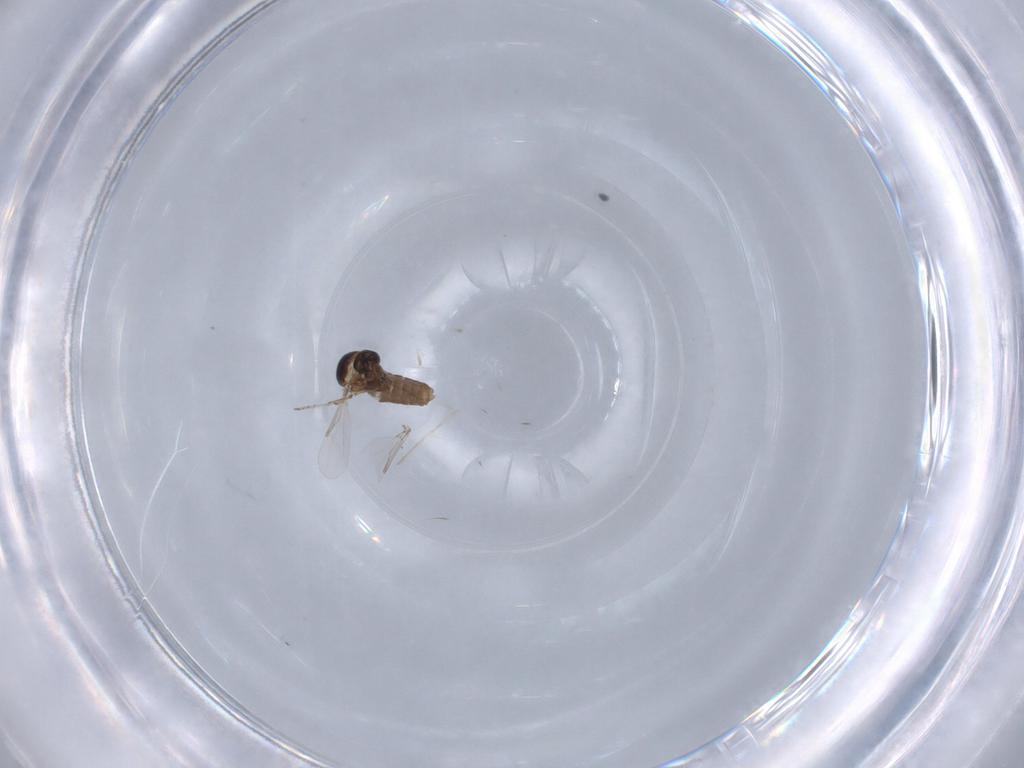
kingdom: Animalia
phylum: Arthropoda
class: Insecta
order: Diptera
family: Ceratopogonidae
